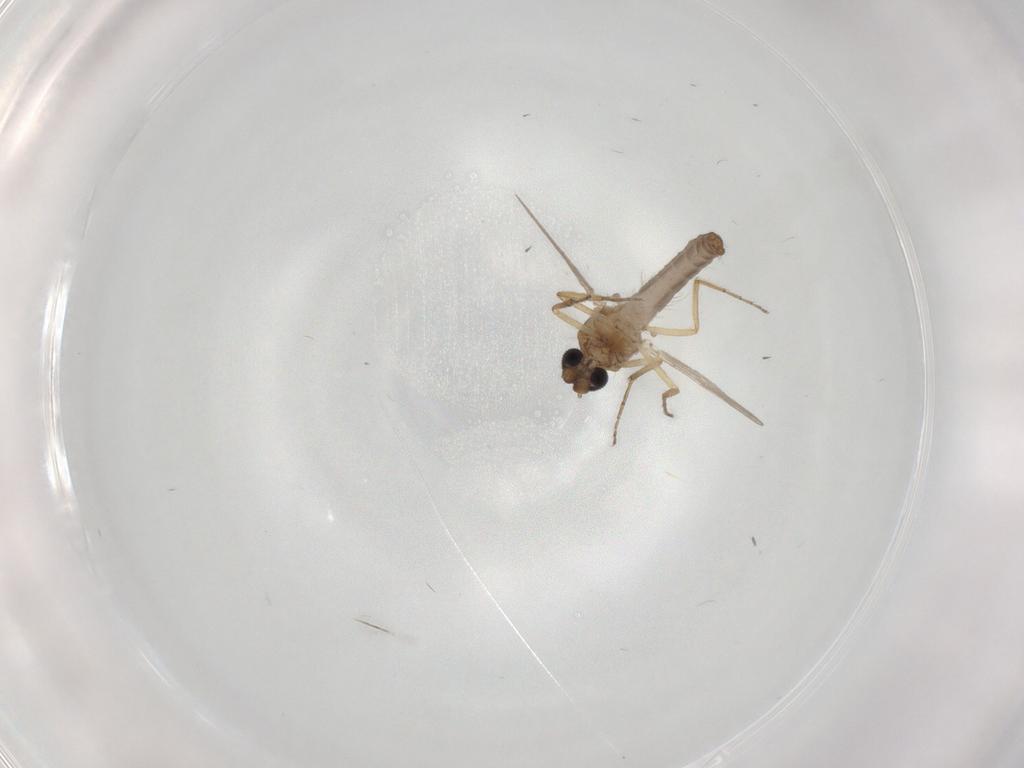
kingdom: Animalia
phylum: Arthropoda
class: Insecta
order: Diptera
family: Ceratopogonidae
